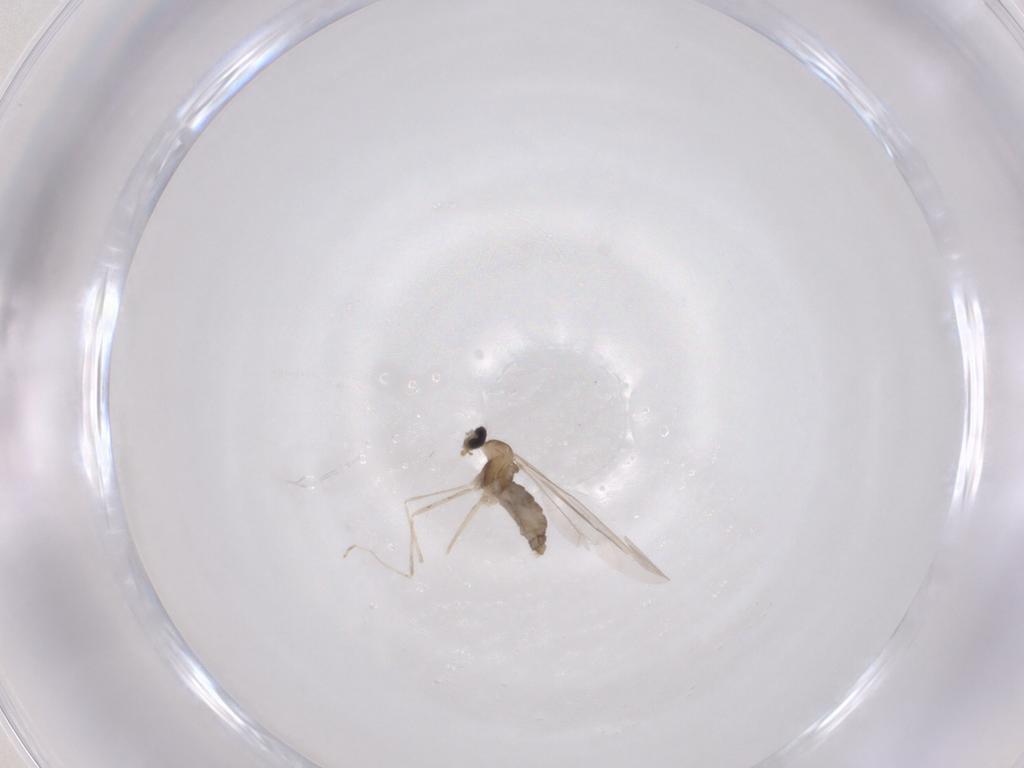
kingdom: Animalia
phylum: Arthropoda
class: Insecta
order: Diptera
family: Cecidomyiidae
